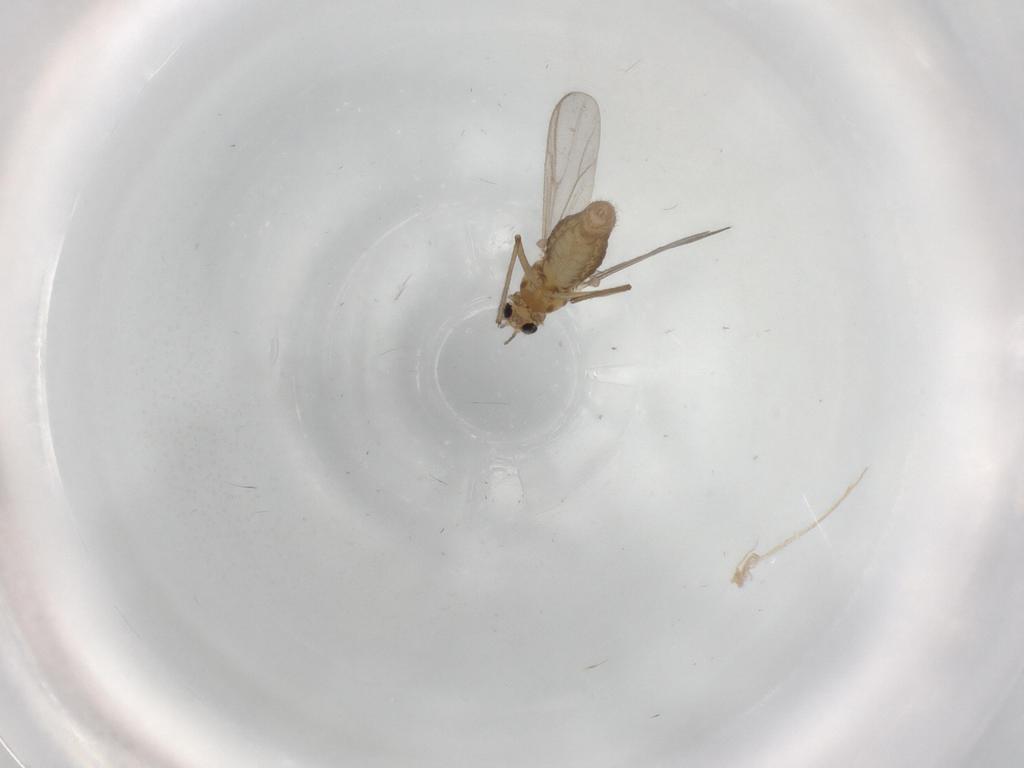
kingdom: Animalia
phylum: Arthropoda
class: Insecta
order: Diptera
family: Chironomidae
